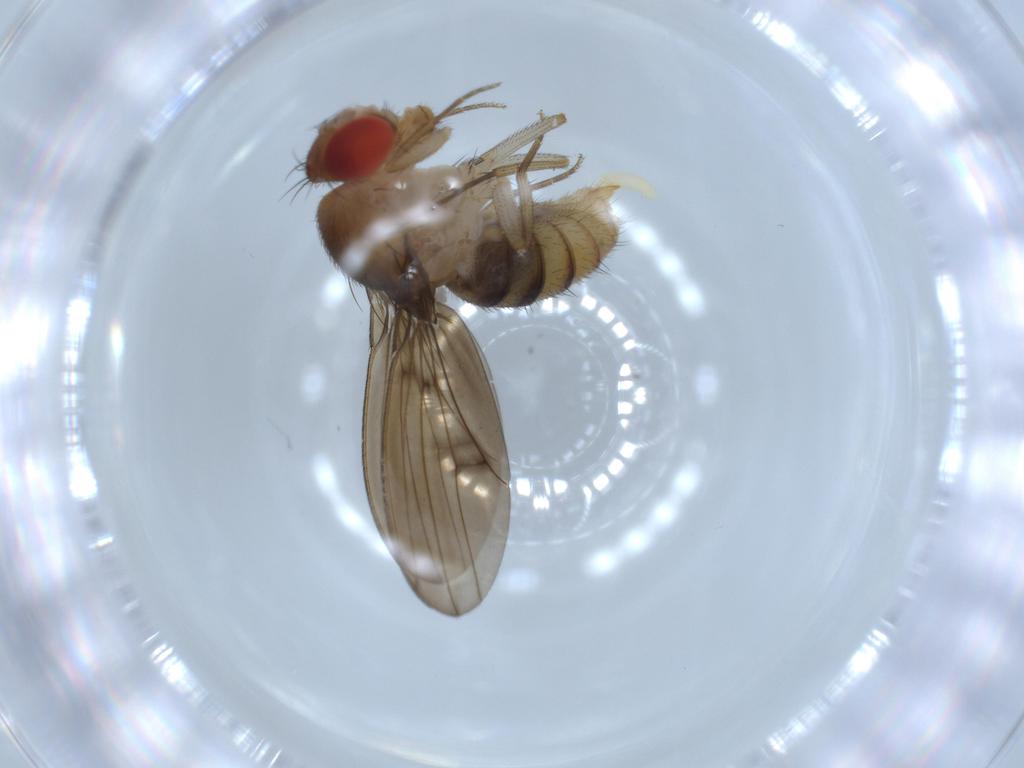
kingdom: Animalia
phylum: Arthropoda
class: Insecta
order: Diptera
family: Drosophilidae
